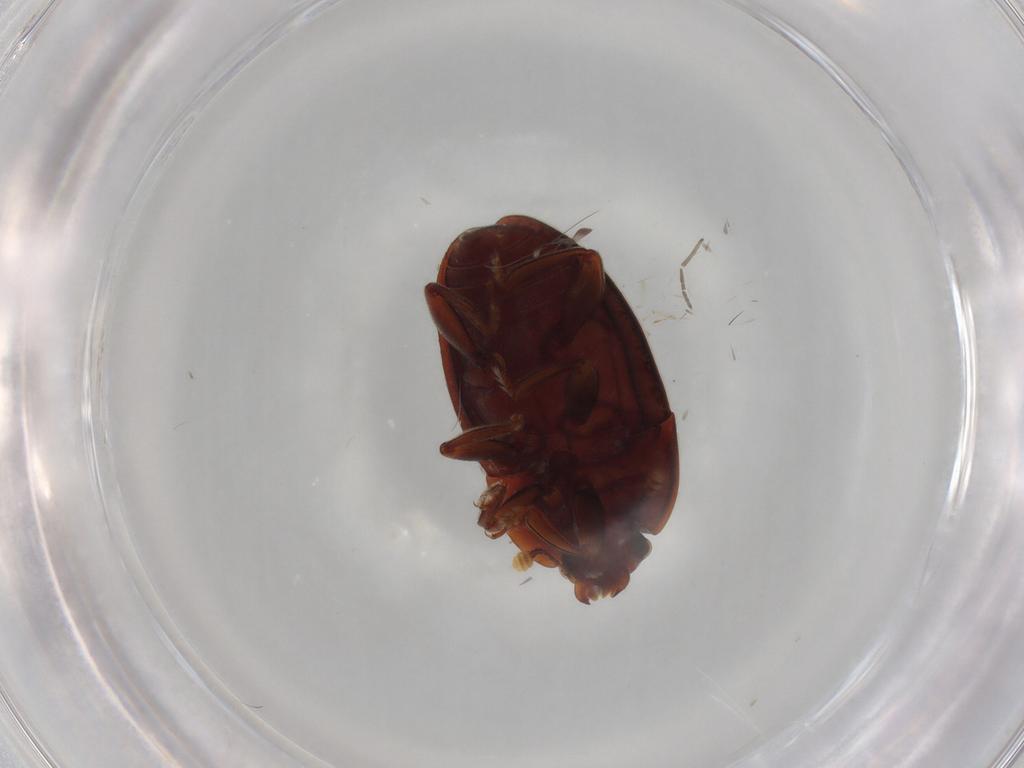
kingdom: Animalia
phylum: Arthropoda
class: Insecta
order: Coleoptera
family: Nitidulidae
